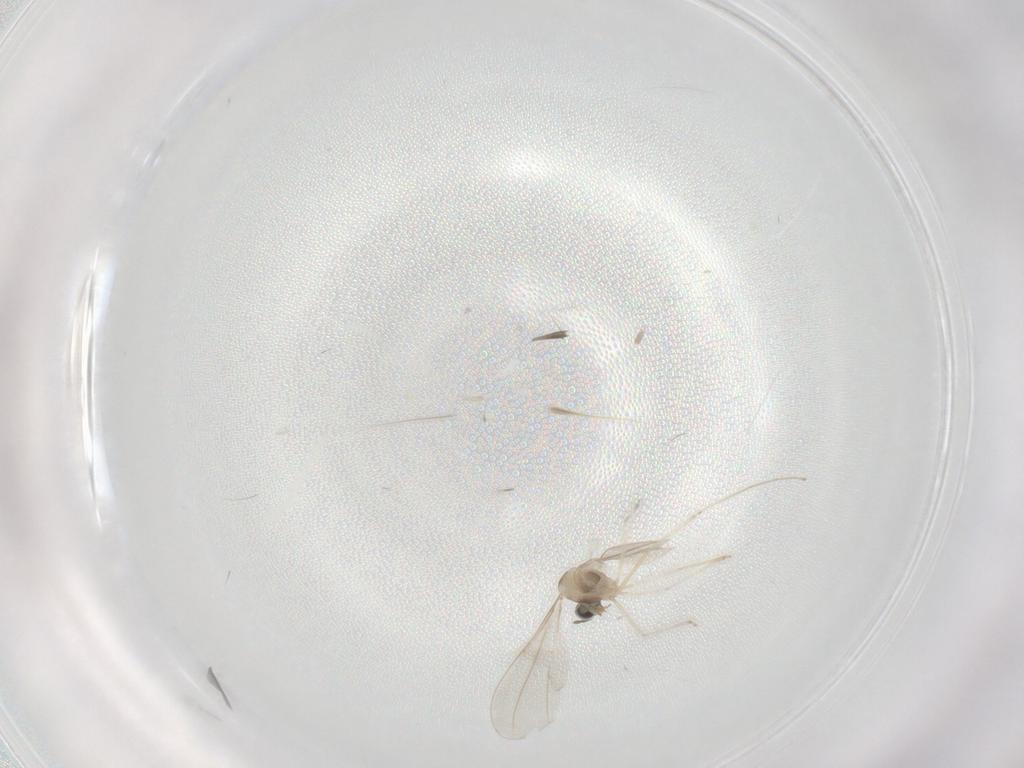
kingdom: Animalia
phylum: Arthropoda
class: Insecta
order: Diptera
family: Cecidomyiidae
